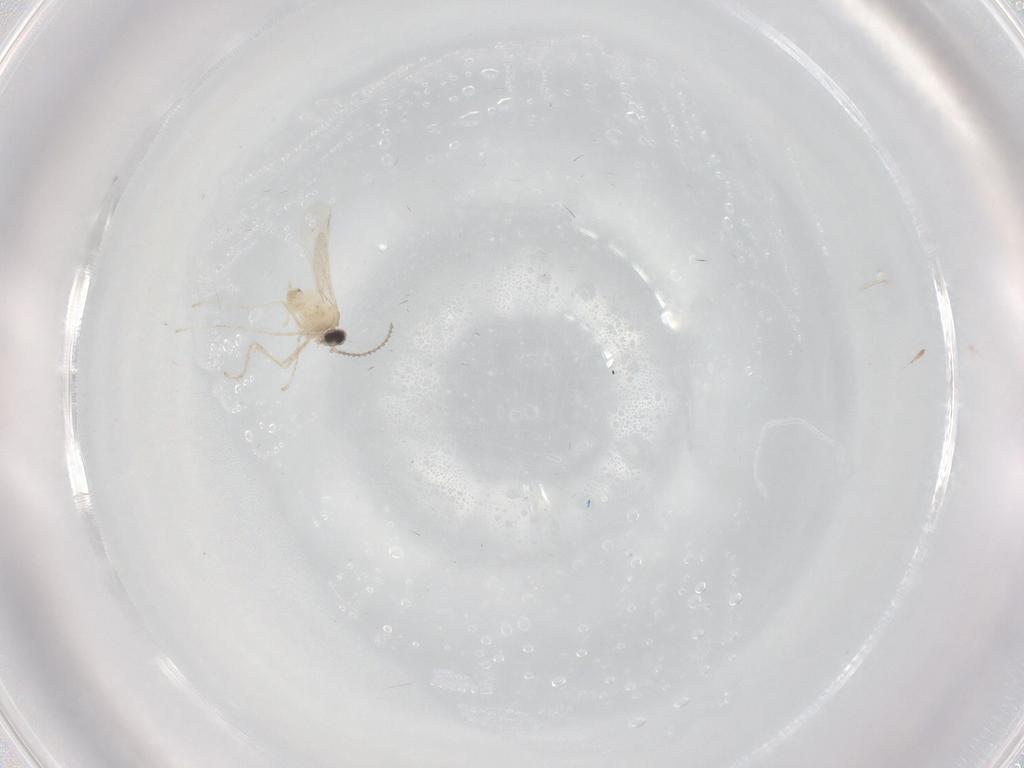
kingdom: Animalia
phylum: Arthropoda
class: Insecta
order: Diptera
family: Cecidomyiidae
